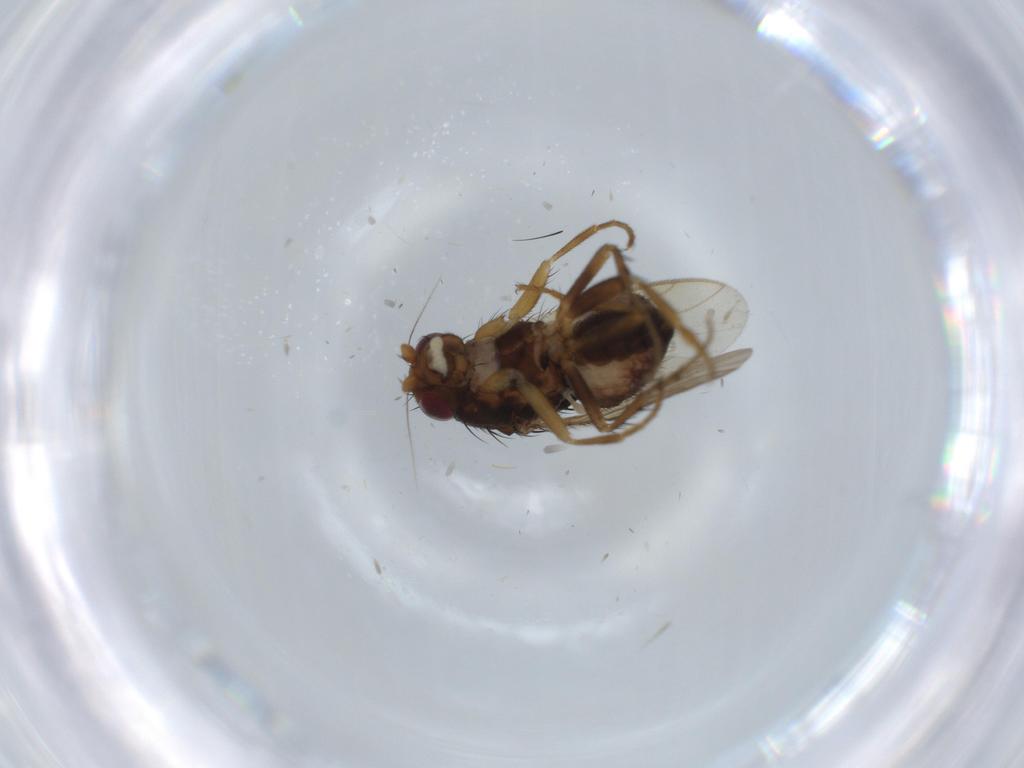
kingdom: Animalia
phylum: Arthropoda
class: Insecta
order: Diptera
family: Sphaeroceridae
